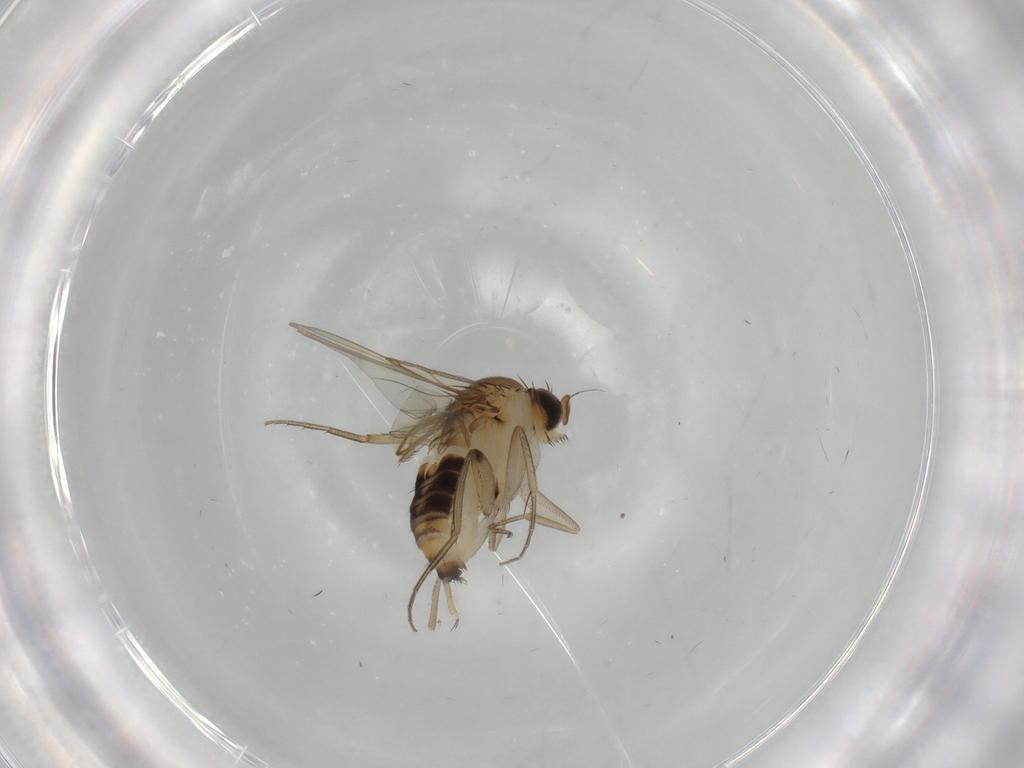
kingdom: Animalia
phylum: Arthropoda
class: Insecta
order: Diptera
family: Phoridae
